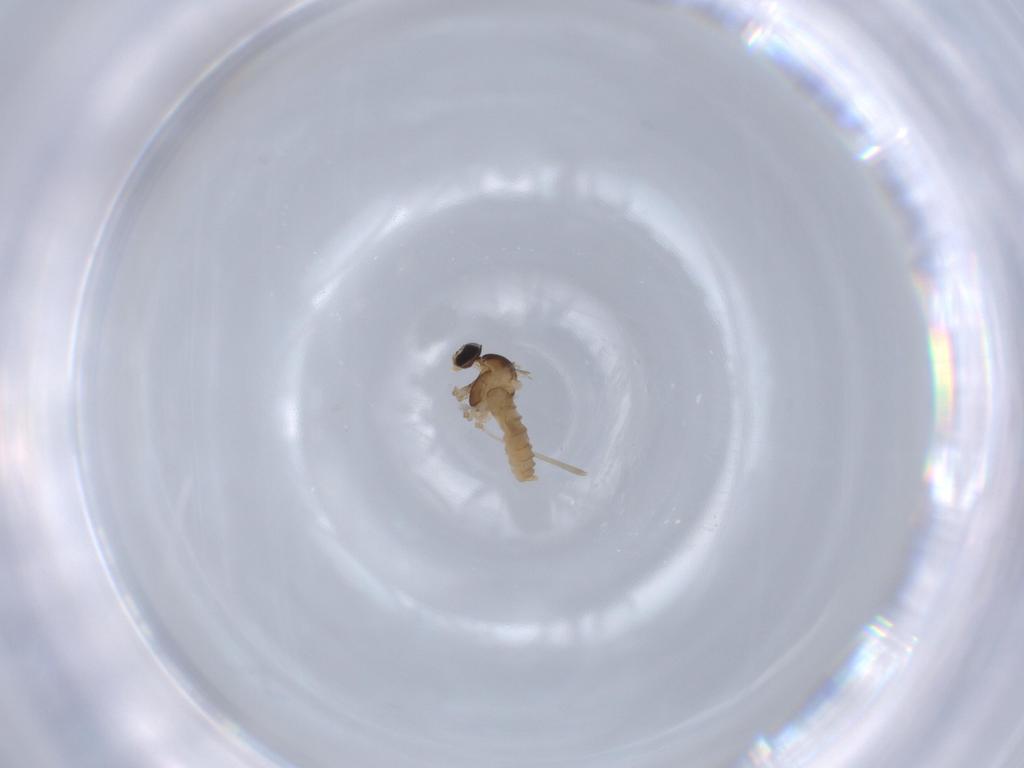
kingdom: Animalia
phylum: Arthropoda
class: Insecta
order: Diptera
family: Cecidomyiidae
